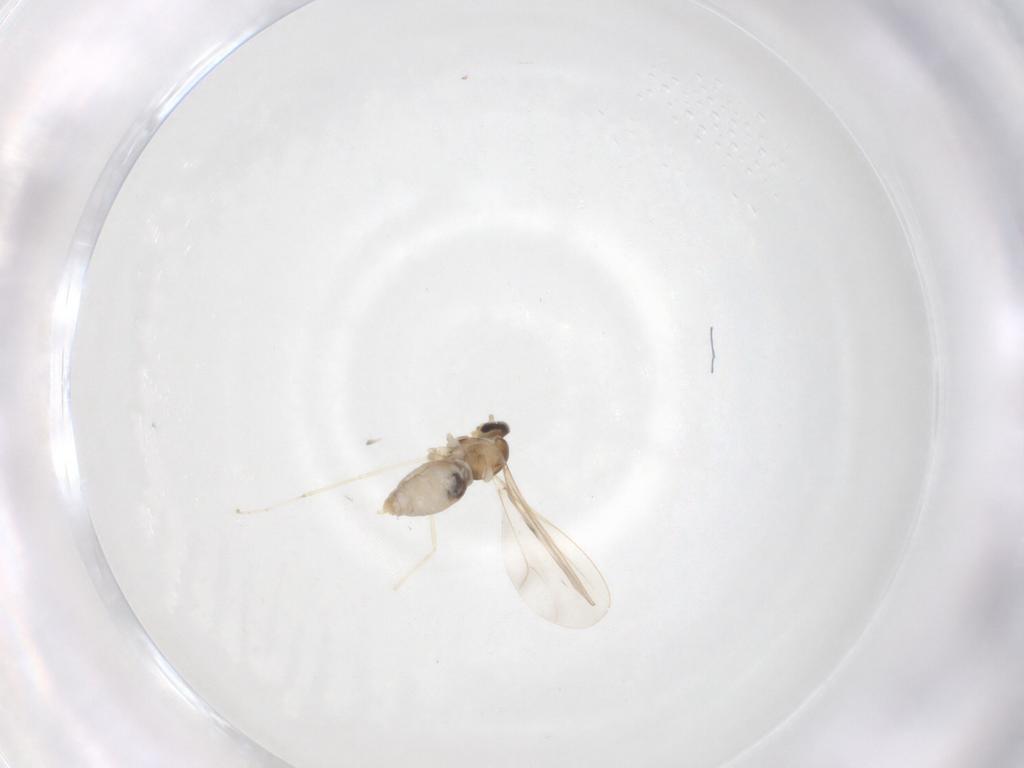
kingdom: Animalia
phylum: Arthropoda
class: Insecta
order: Diptera
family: Cecidomyiidae
